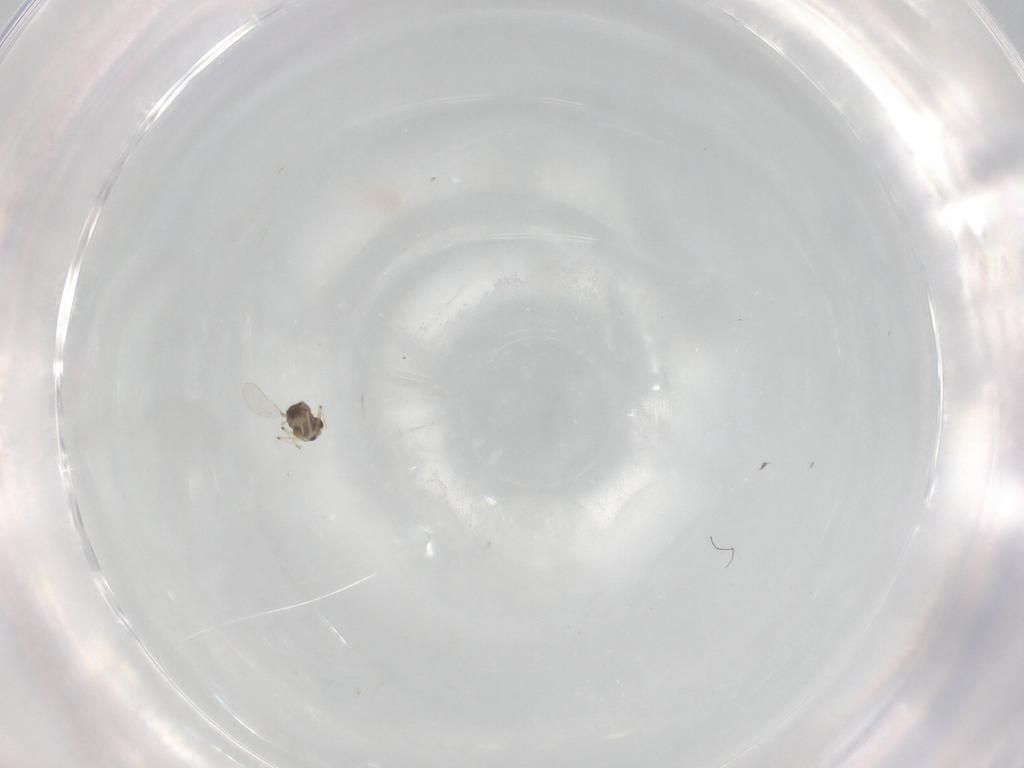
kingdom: Animalia
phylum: Arthropoda
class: Insecta
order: Diptera
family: Chironomidae
